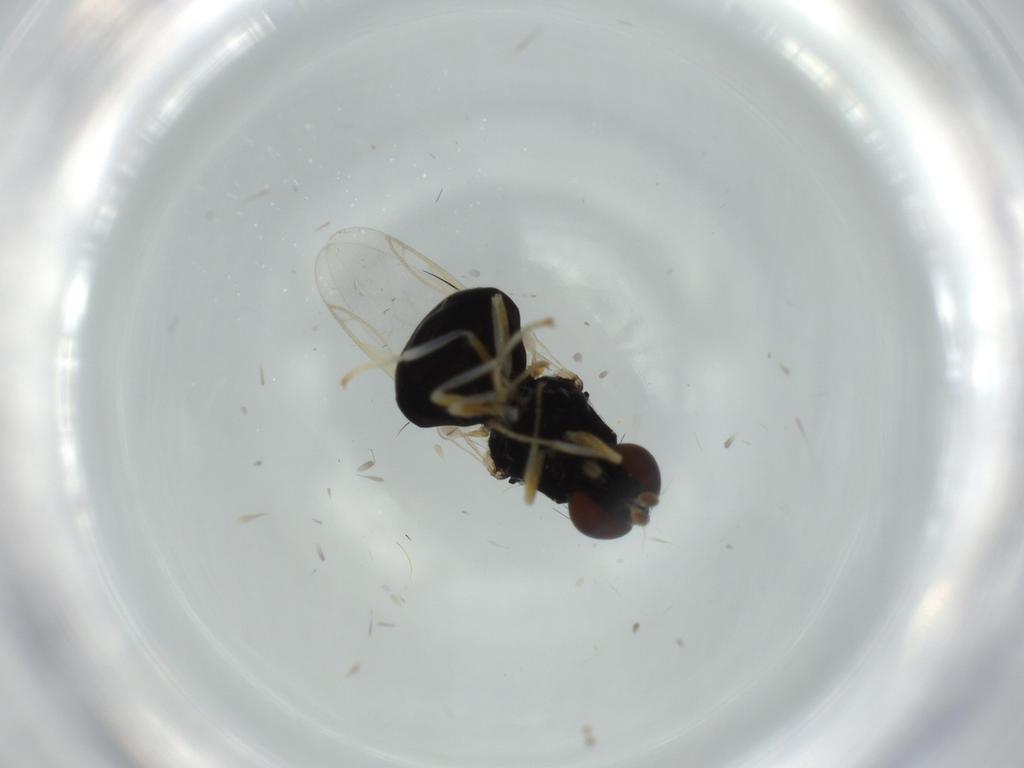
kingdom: Animalia
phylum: Arthropoda
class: Insecta
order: Diptera
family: Stratiomyidae
